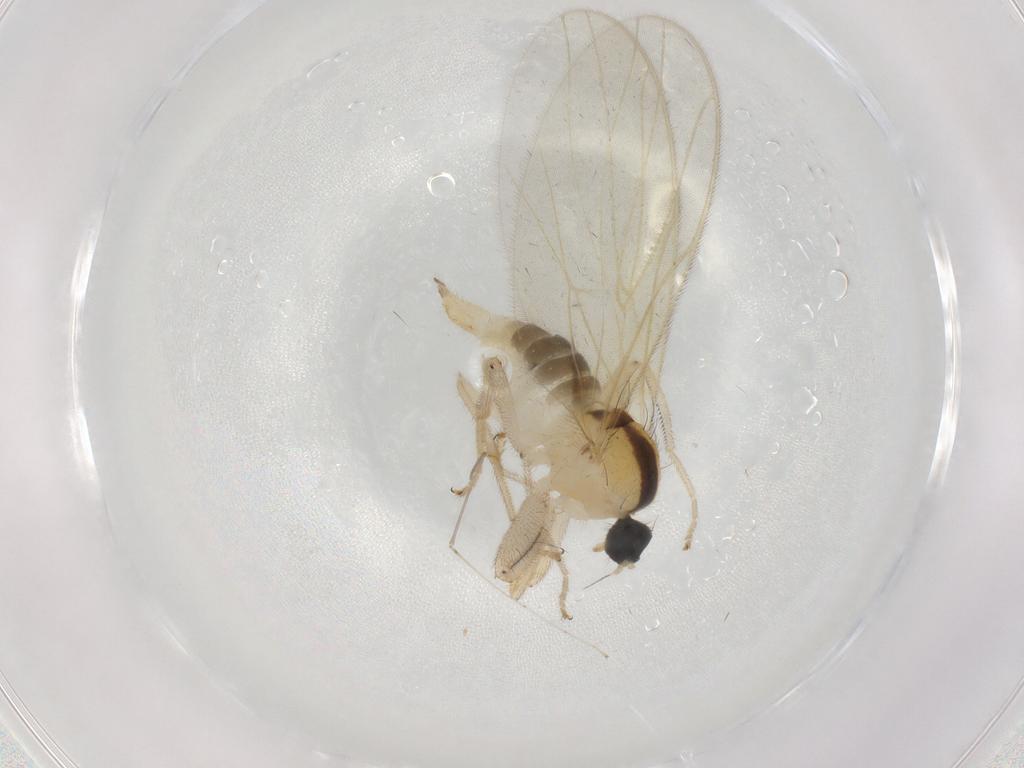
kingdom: Animalia
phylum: Arthropoda
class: Insecta
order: Diptera
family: Hybotidae
